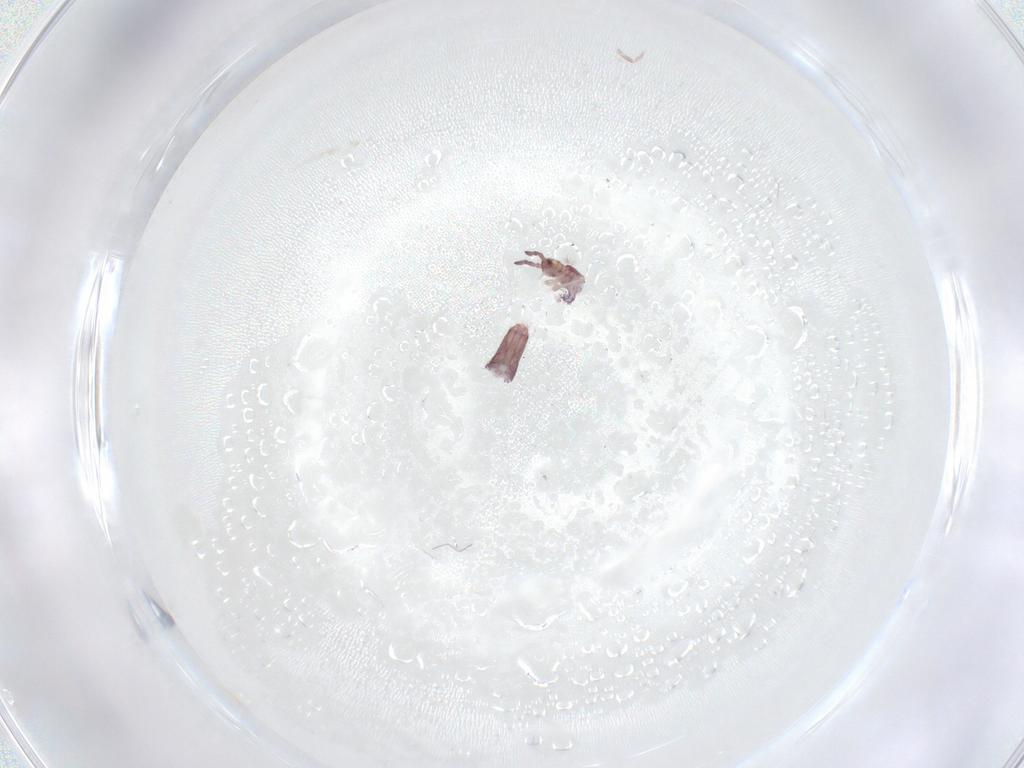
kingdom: Animalia
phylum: Arthropoda
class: Collembola
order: Entomobryomorpha
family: Entomobryidae
